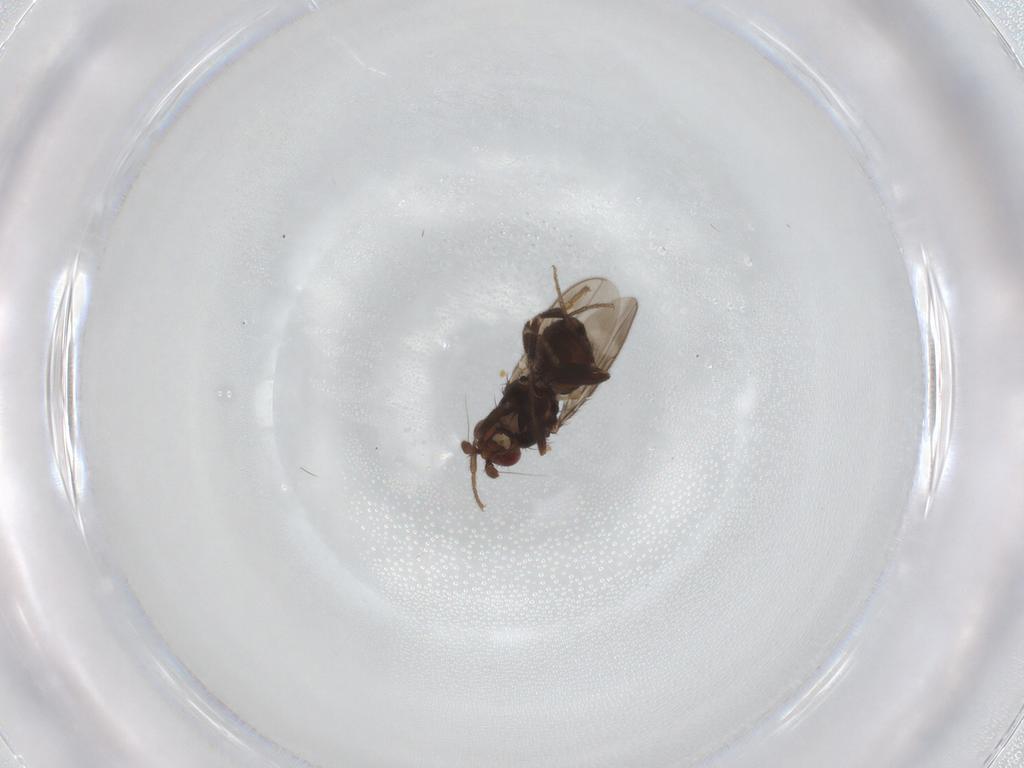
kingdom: Animalia
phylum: Arthropoda
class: Insecta
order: Diptera
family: Sphaeroceridae
